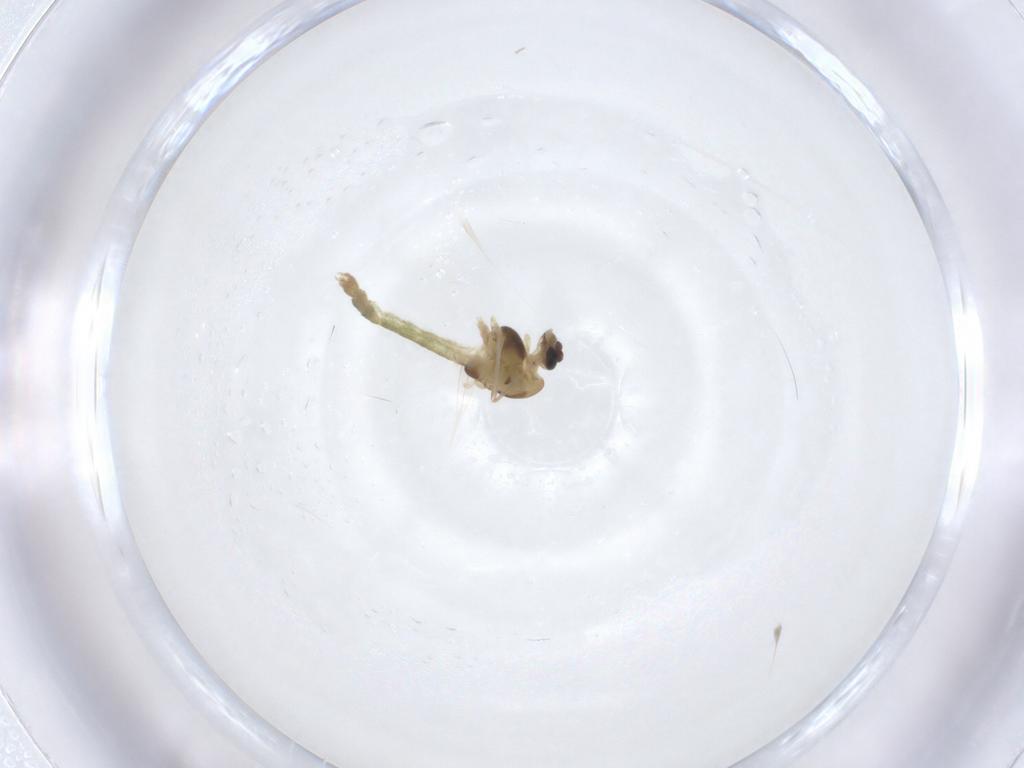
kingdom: Animalia
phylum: Arthropoda
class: Insecta
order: Diptera
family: Chironomidae
